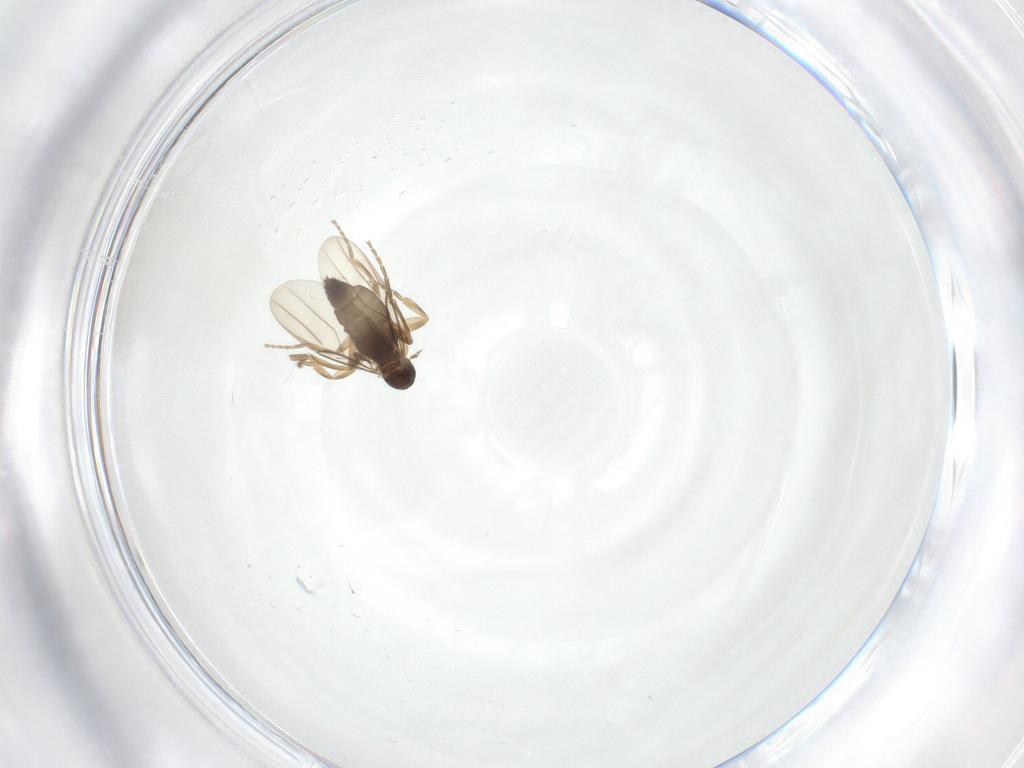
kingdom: Animalia
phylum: Arthropoda
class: Insecta
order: Diptera
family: Phoridae
